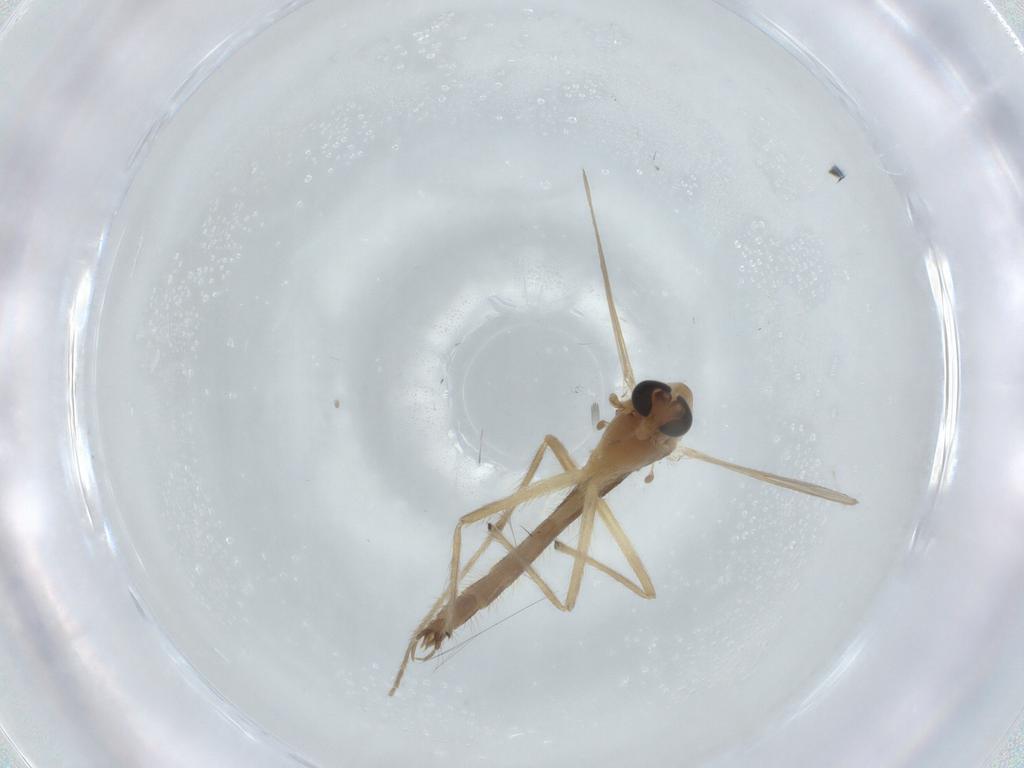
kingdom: Animalia
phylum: Arthropoda
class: Insecta
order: Diptera
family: Chironomidae
